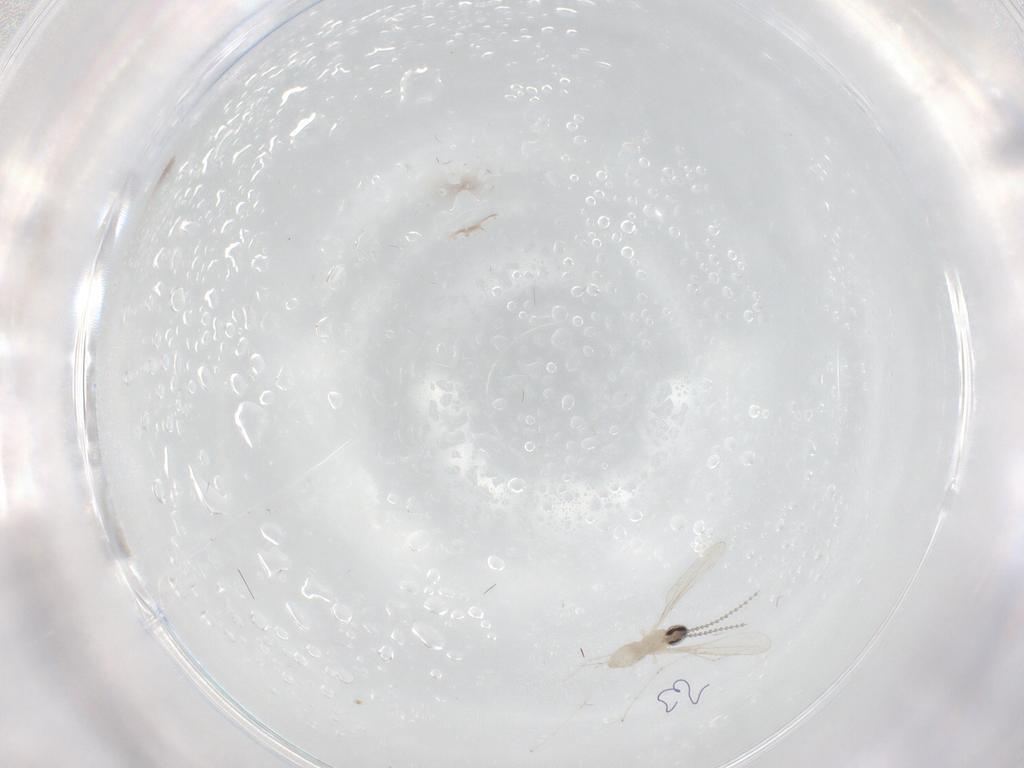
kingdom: Animalia
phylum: Arthropoda
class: Insecta
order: Diptera
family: Cecidomyiidae
